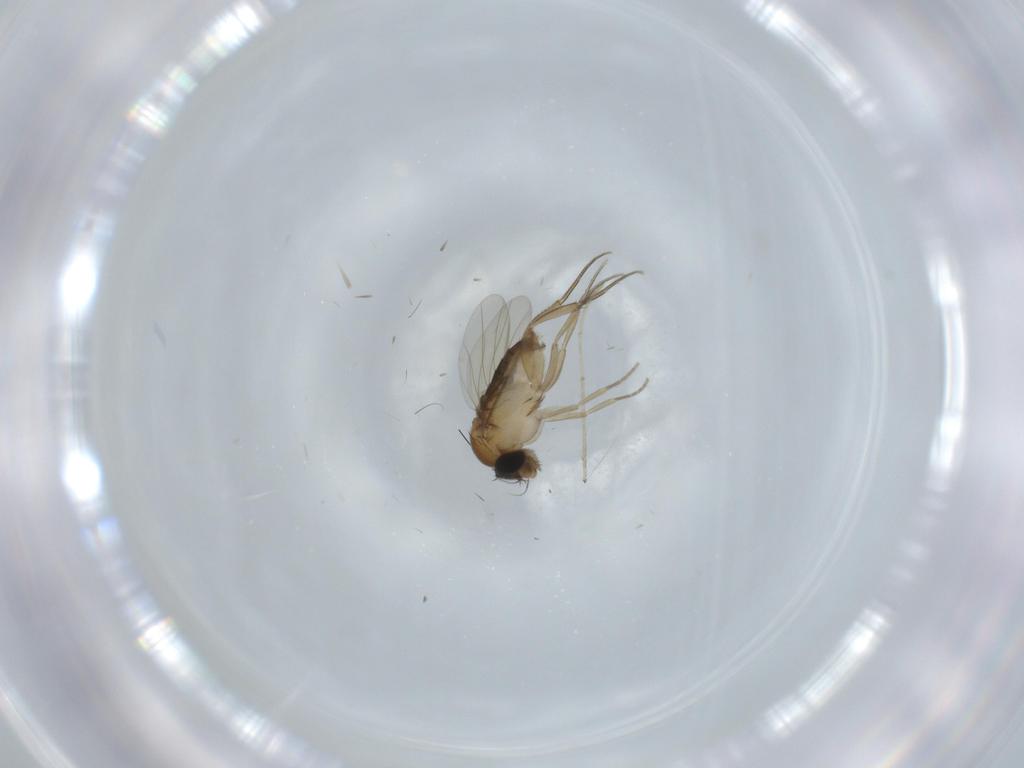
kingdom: Animalia
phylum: Arthropoda
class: Insecta
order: Diptera
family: Phoridae
